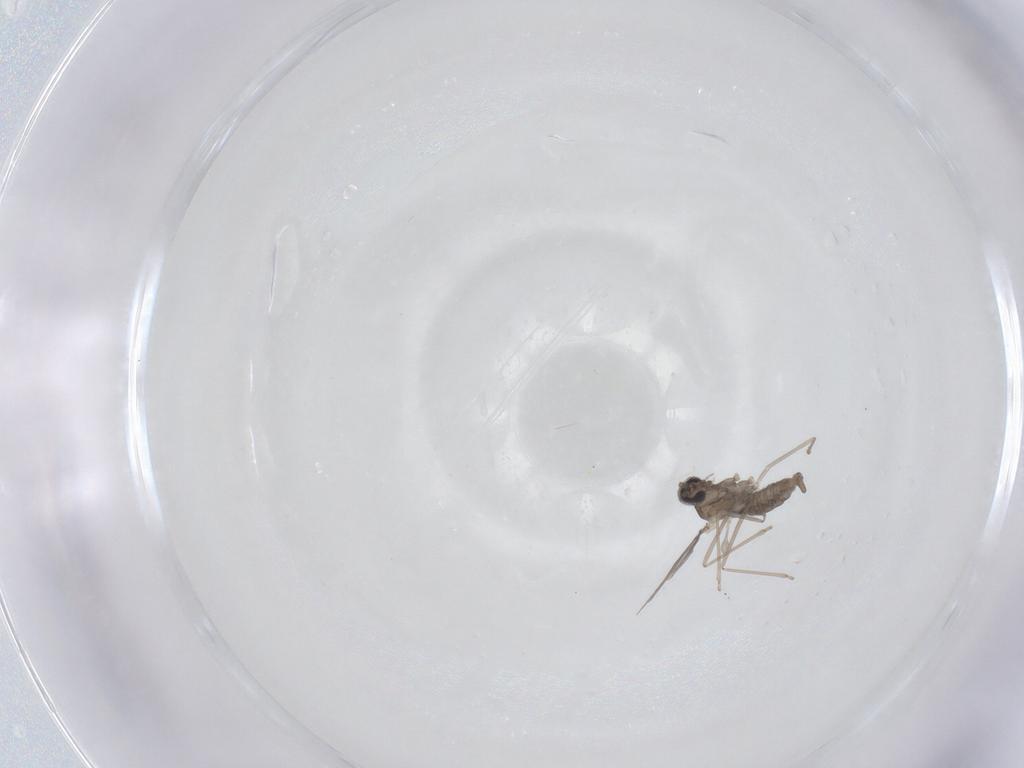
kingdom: Animalia
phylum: Arthropoda
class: Insecta
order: Diptera
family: Cecidomyiidae
